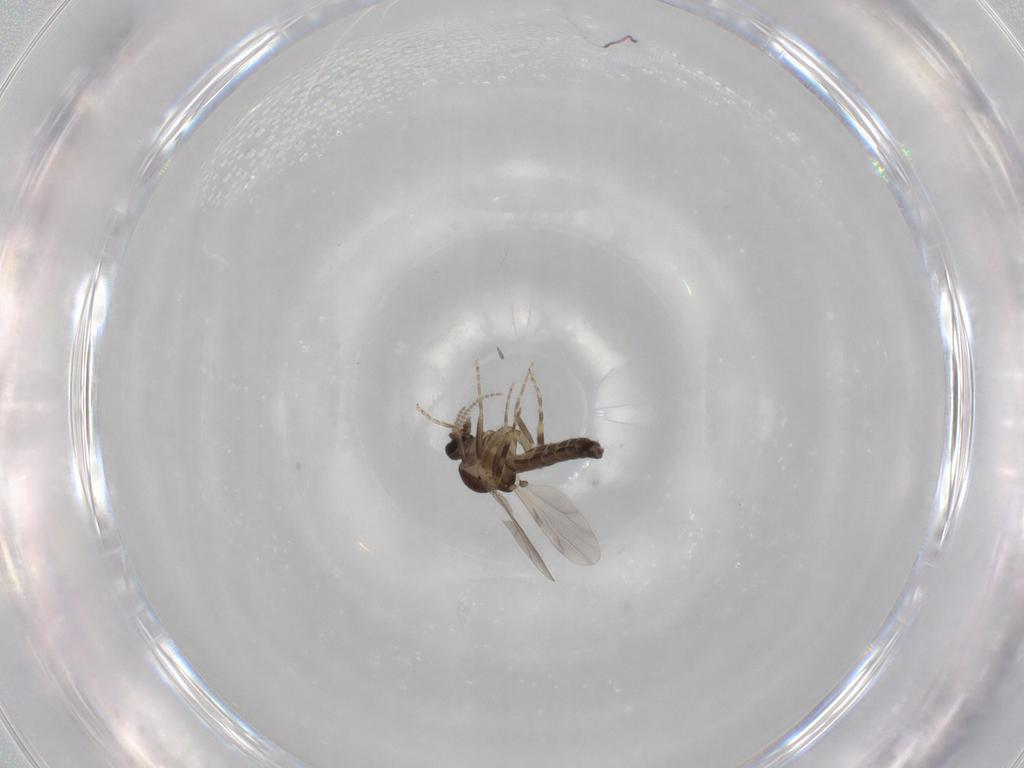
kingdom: Animalia
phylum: Arthropoda
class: Insecta
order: Diptera
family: Ceratopogonidae
